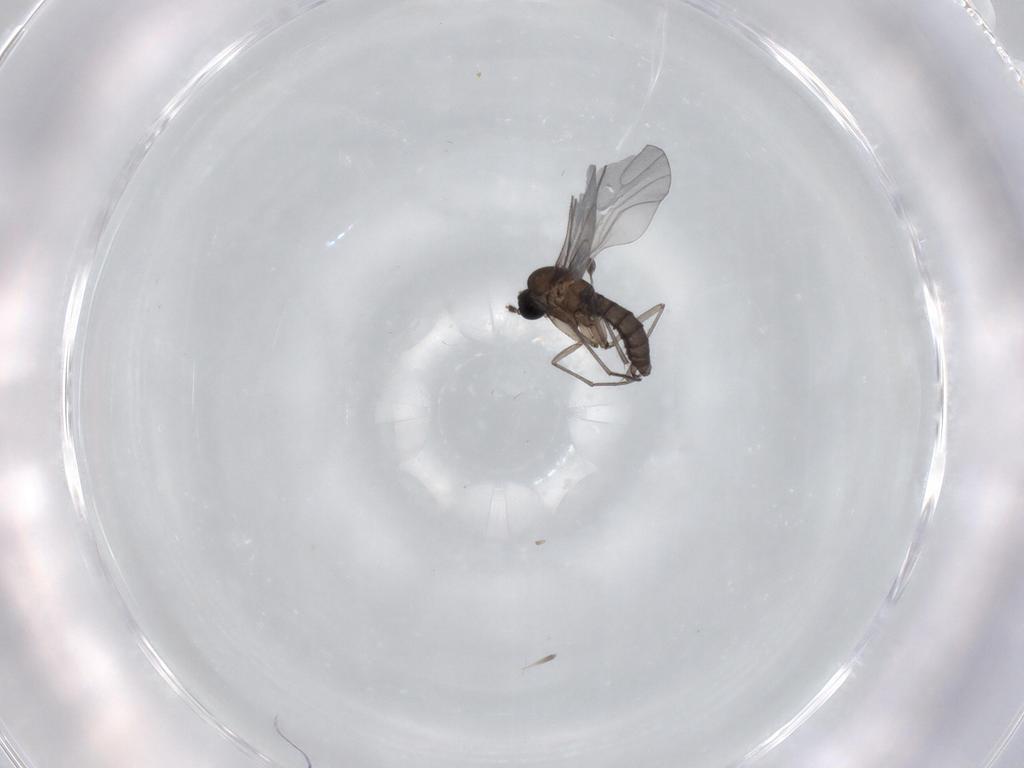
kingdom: Animalia
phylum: Arthropoda
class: Insecta
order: Diptera
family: Sciaridae
